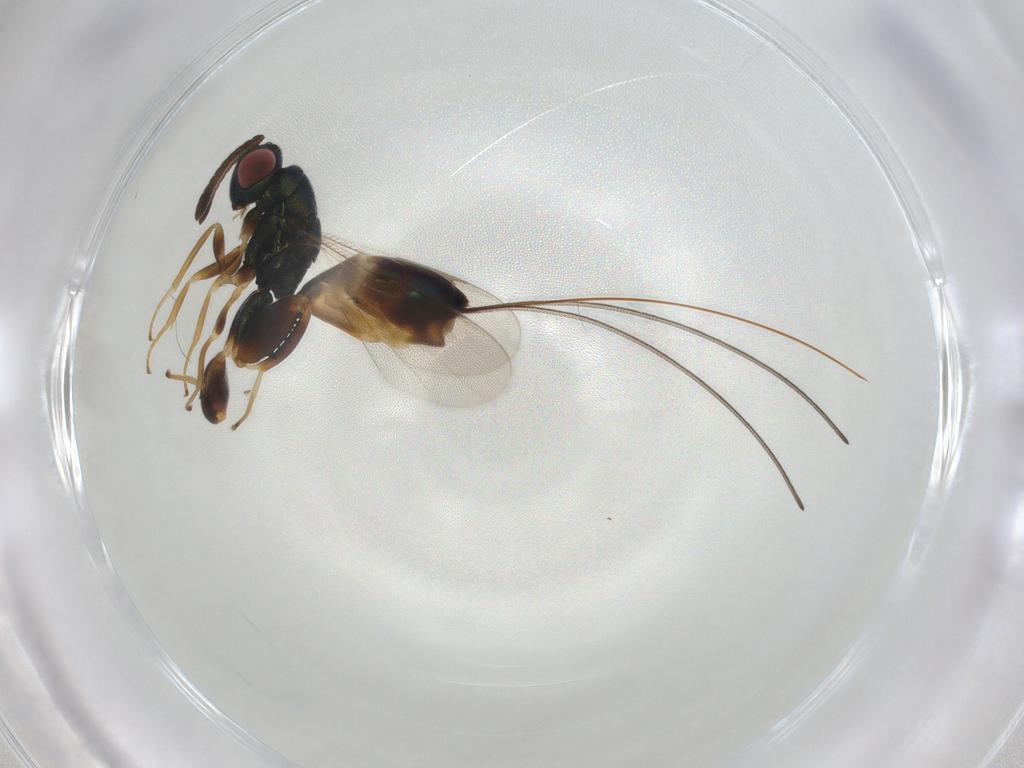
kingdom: Animalia
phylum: Arthropoda
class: Insecta
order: Hymenoptera
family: Torymidae
